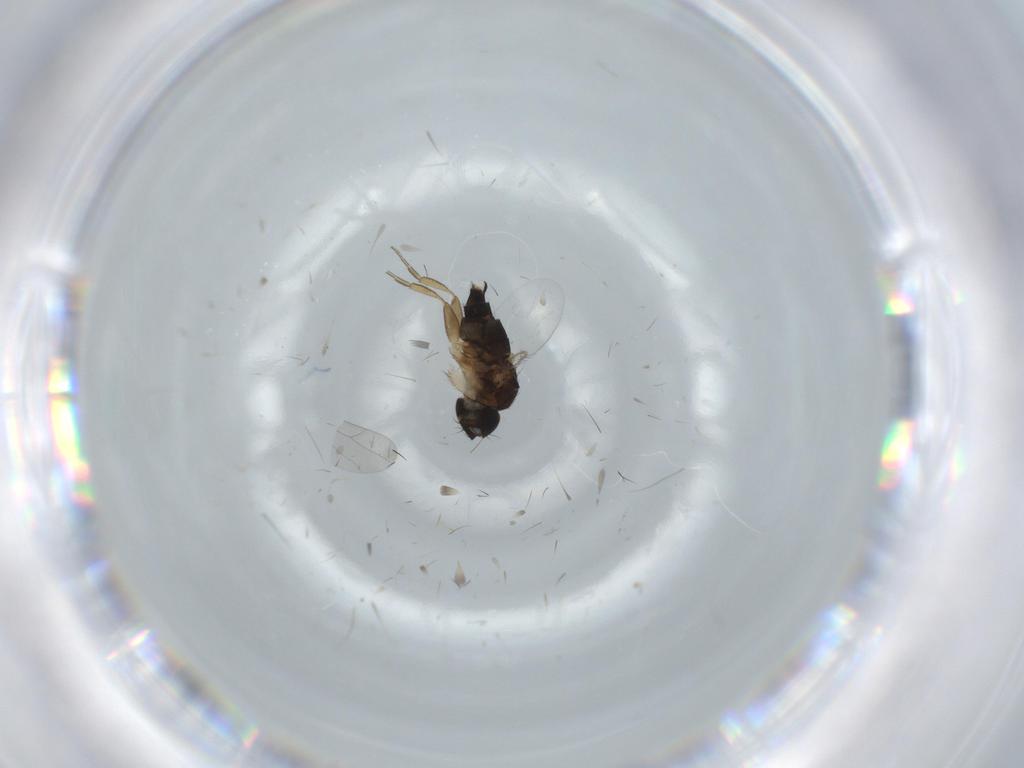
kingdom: Animalia
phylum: Arthropoda
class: Insecta
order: Diptera
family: Phoridae
